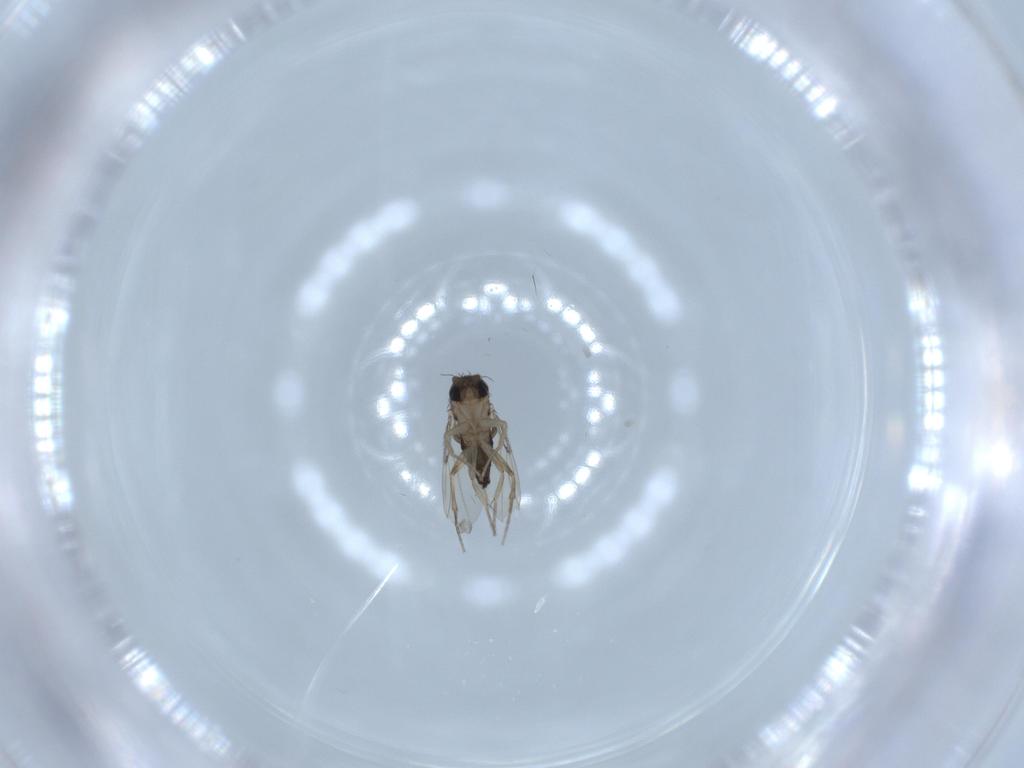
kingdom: Animalia
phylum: Arthropoda
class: Insecta
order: Diptera
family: Phoridae
